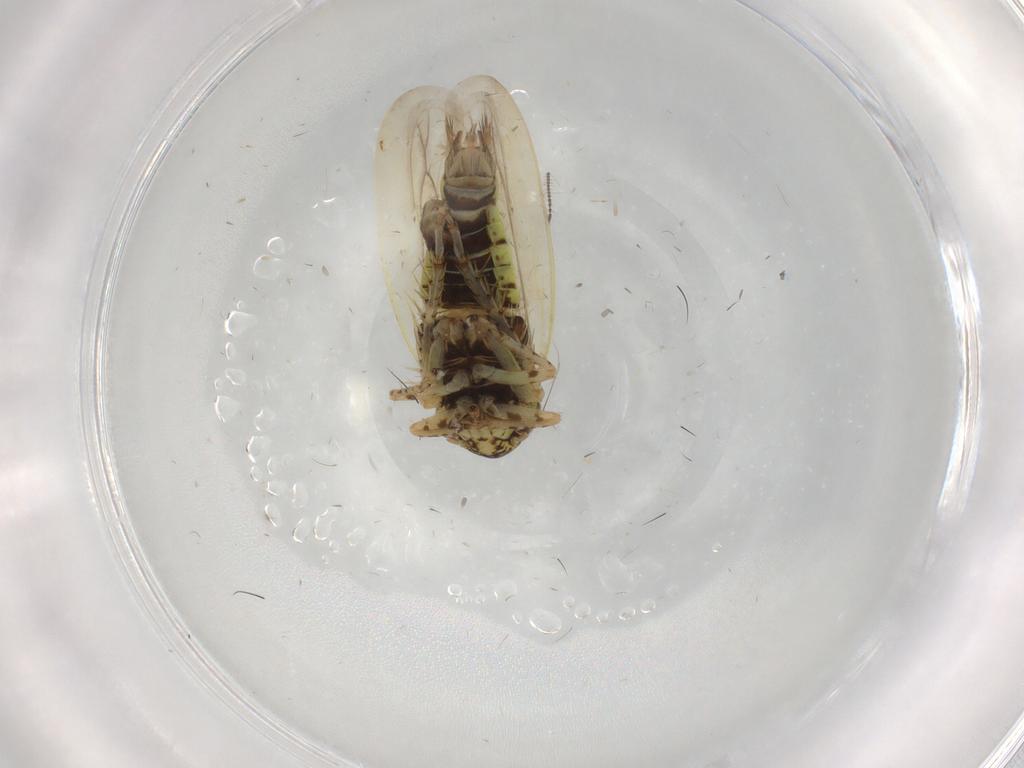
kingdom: Animalia
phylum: Arthropoda
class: Insecta
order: Hemiptera
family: Cicadellidae
